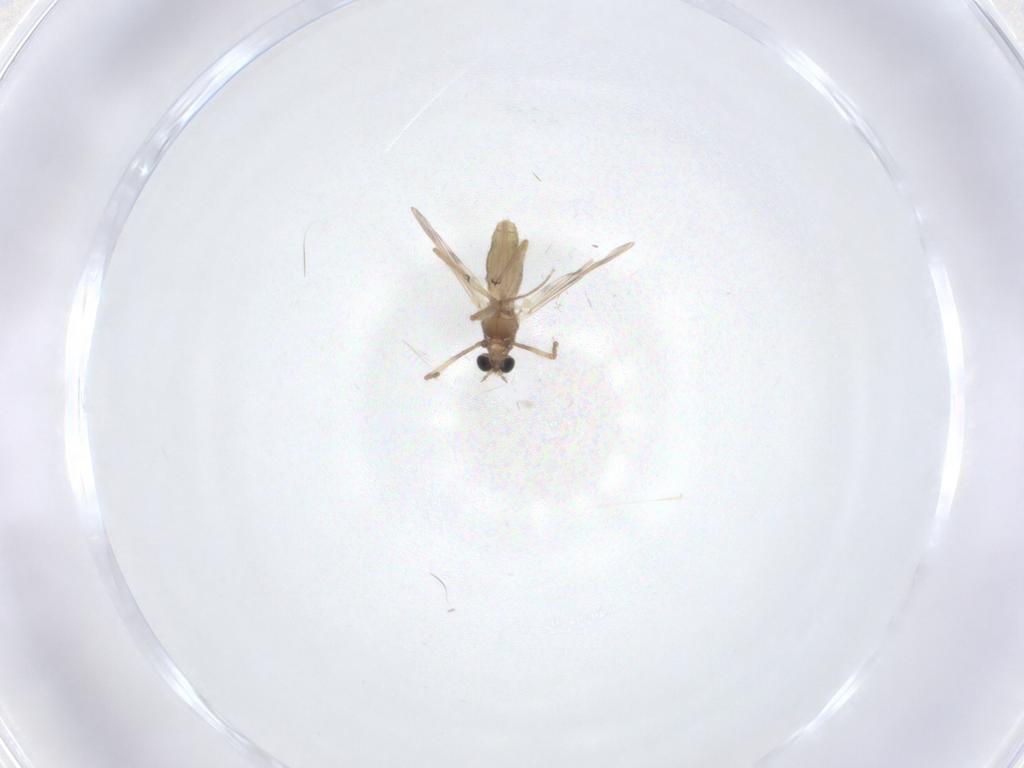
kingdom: Animalia
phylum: Arthropoda
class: Insecta
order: Diptera
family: Chironomidae
